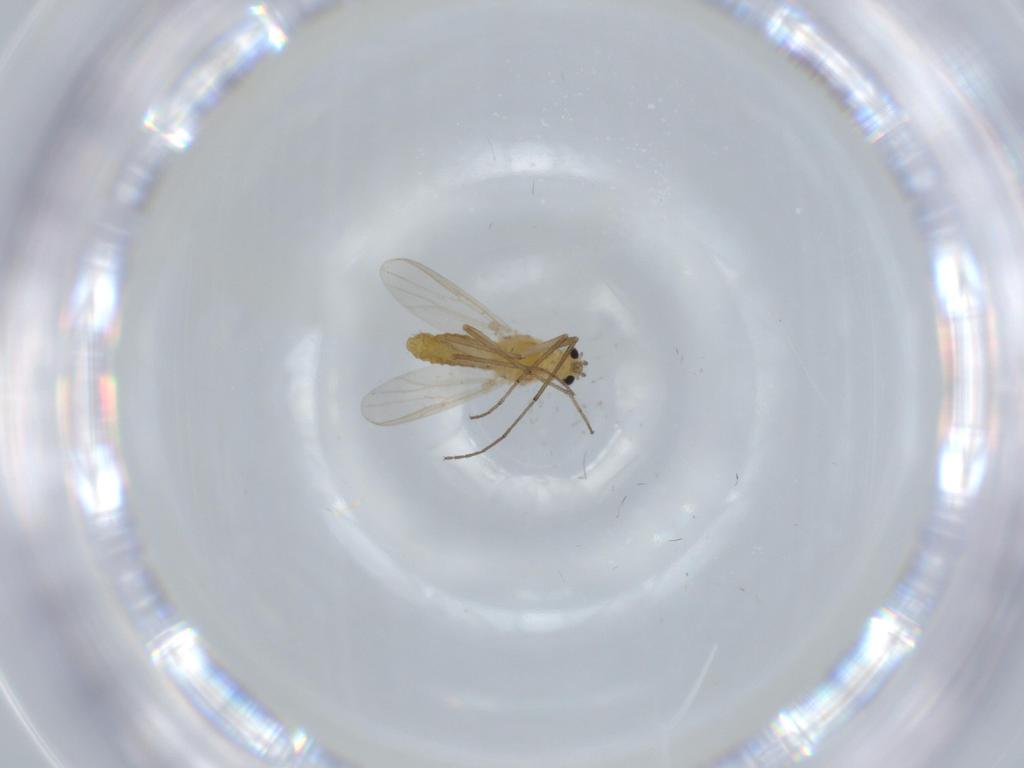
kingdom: Animalia
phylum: Arthropoda
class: Insecta
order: Diptera
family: Chironomidae
